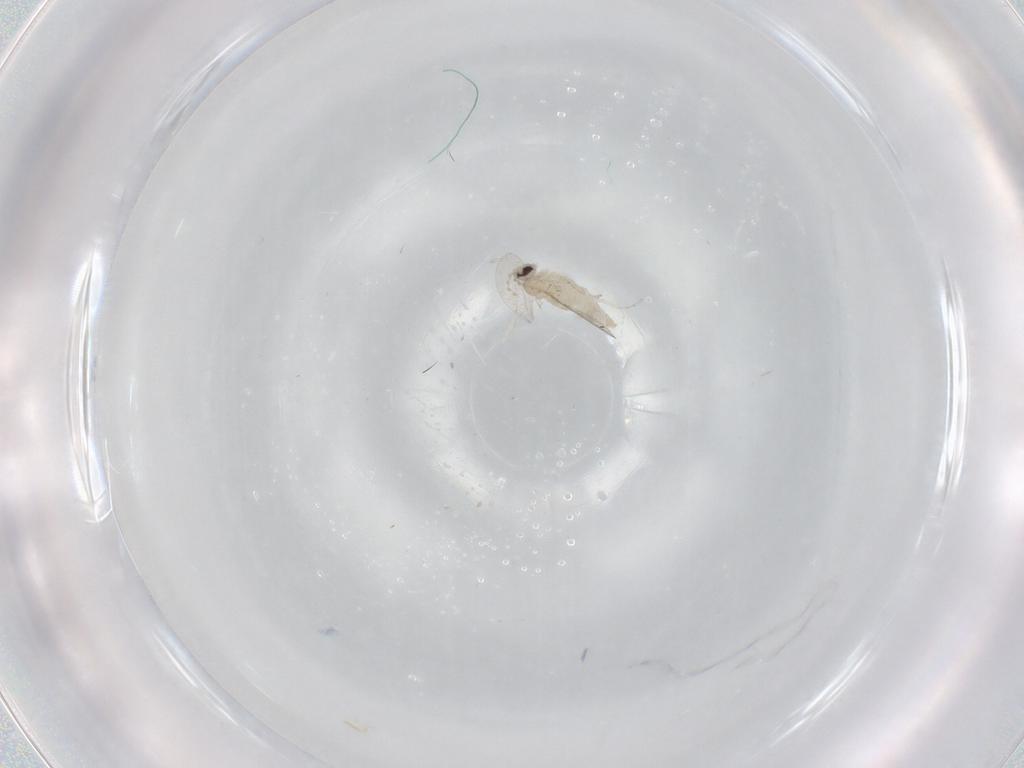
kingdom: Animalia
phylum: Arthropoda
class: Insecta
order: Diptera
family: Cecidomyiidae
